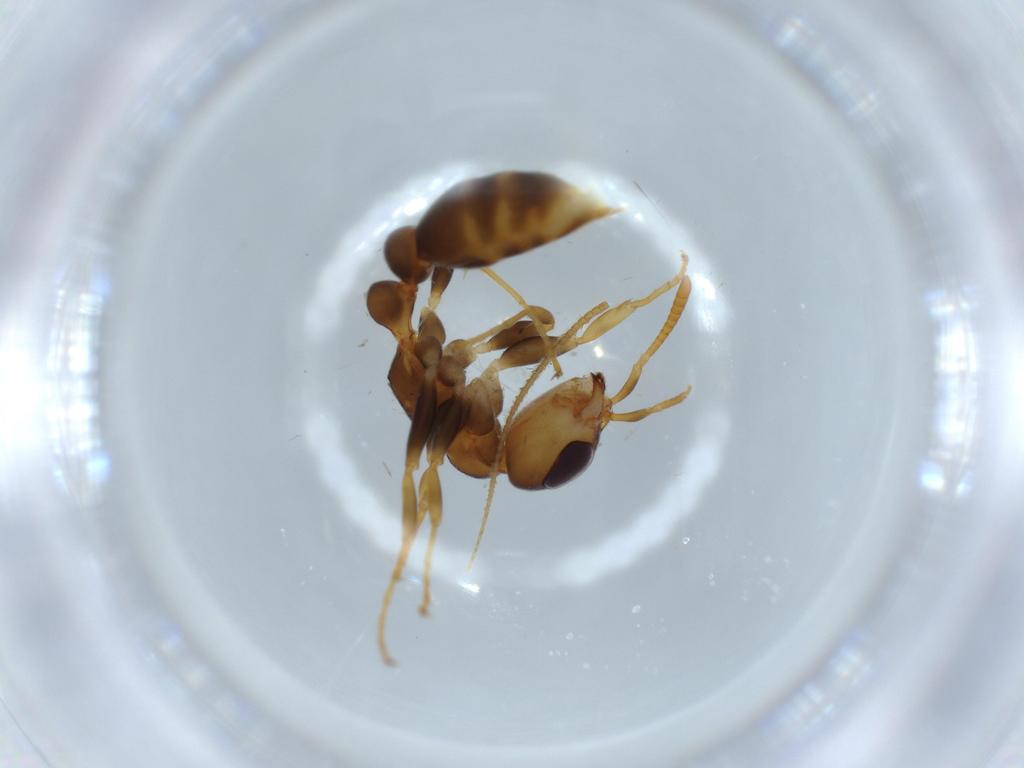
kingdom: Animalia
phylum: Arthropoda
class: Insecta
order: Hymenoptera
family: Formicidae
